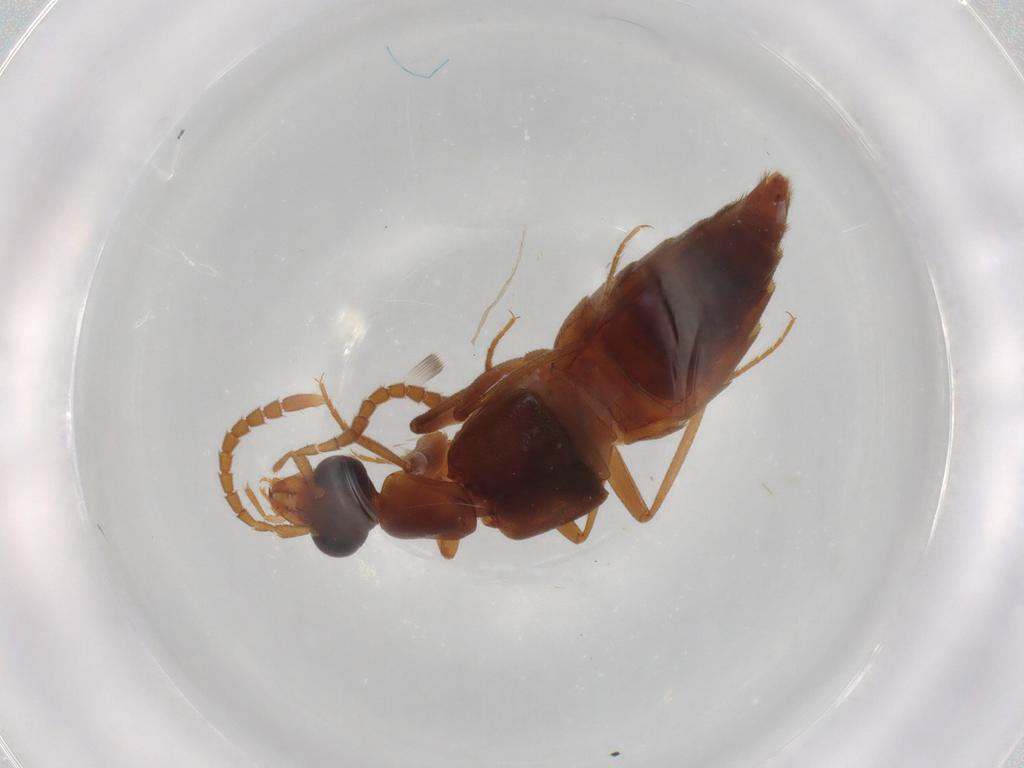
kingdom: Animalia
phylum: Arthropoda
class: Insecta
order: Coleoptera
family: Staphylinidae
